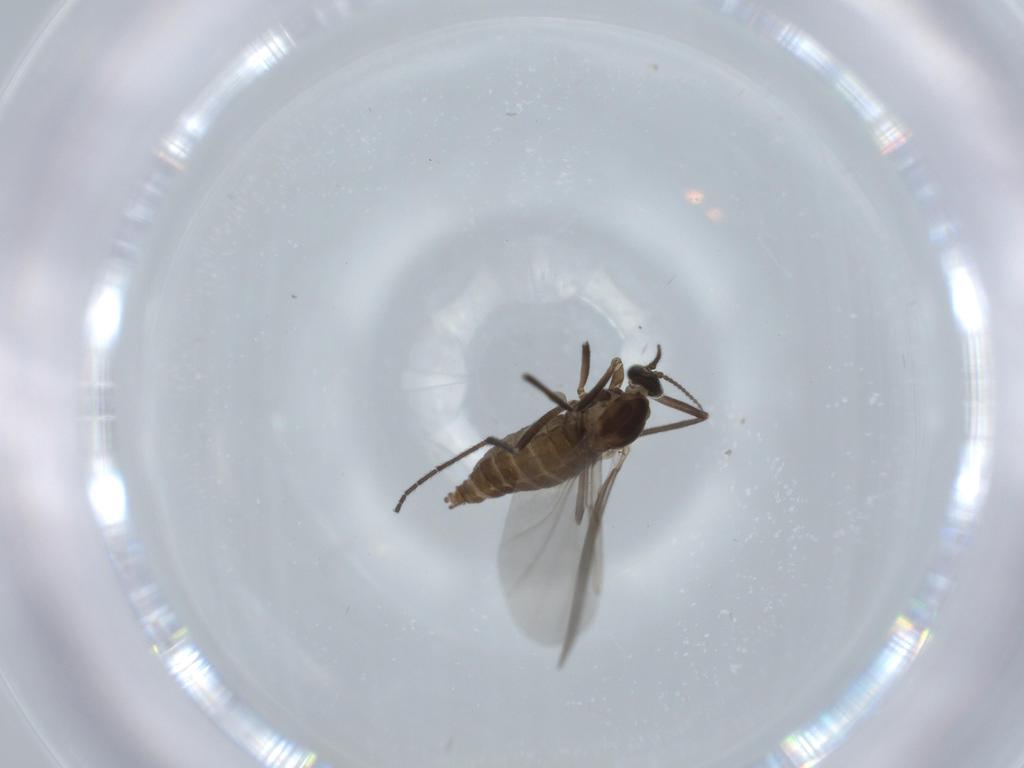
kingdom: Animalia
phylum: Arthropoda
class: Insecta
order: Diptera
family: Cecidomyiidae
